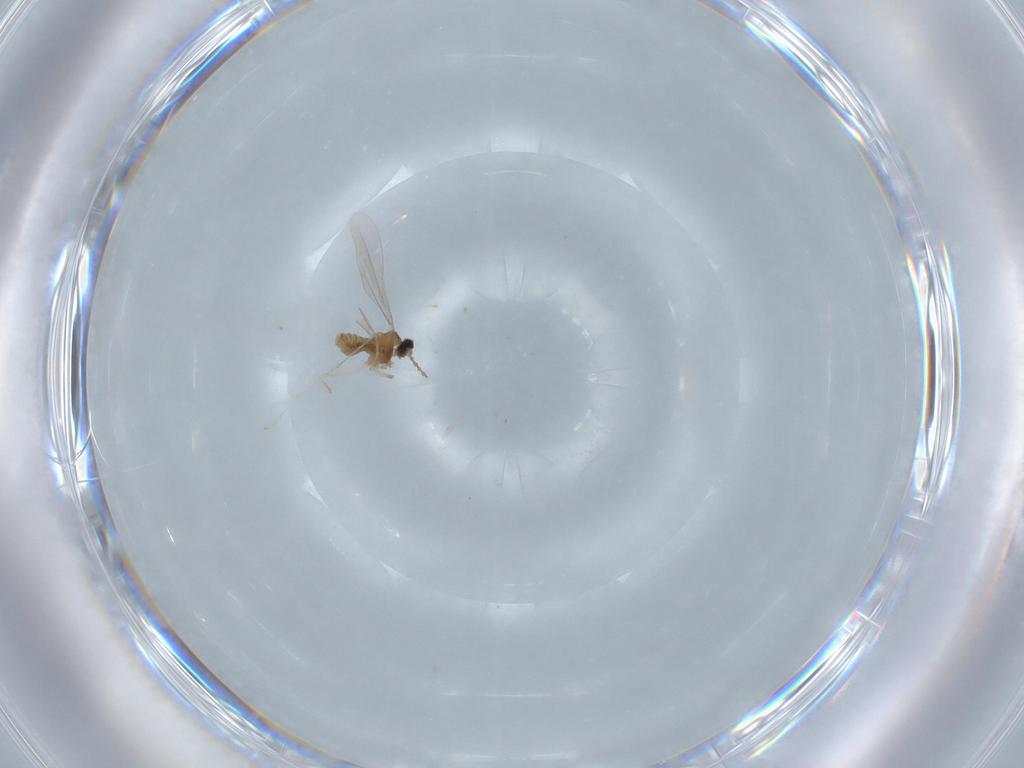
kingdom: Animalia
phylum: Arthropoda
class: Insecta
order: Diptera
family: Cecidomyiidae
